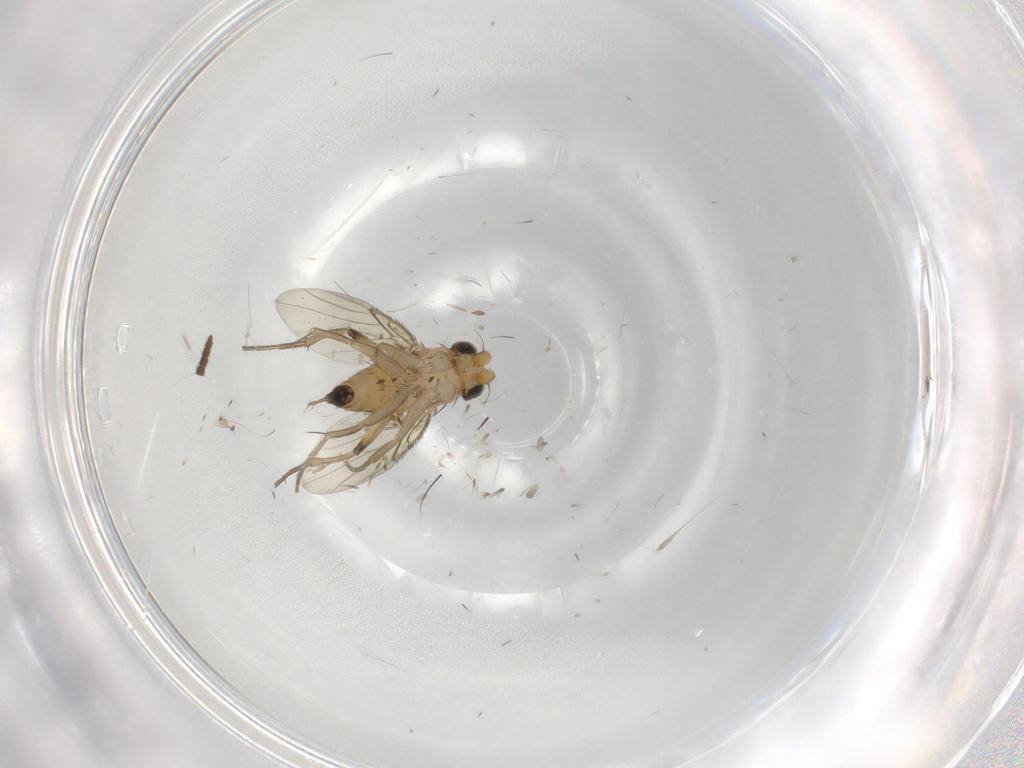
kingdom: Animalia
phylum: Arthropoda
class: Insecta
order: Diptera
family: Phoridae
